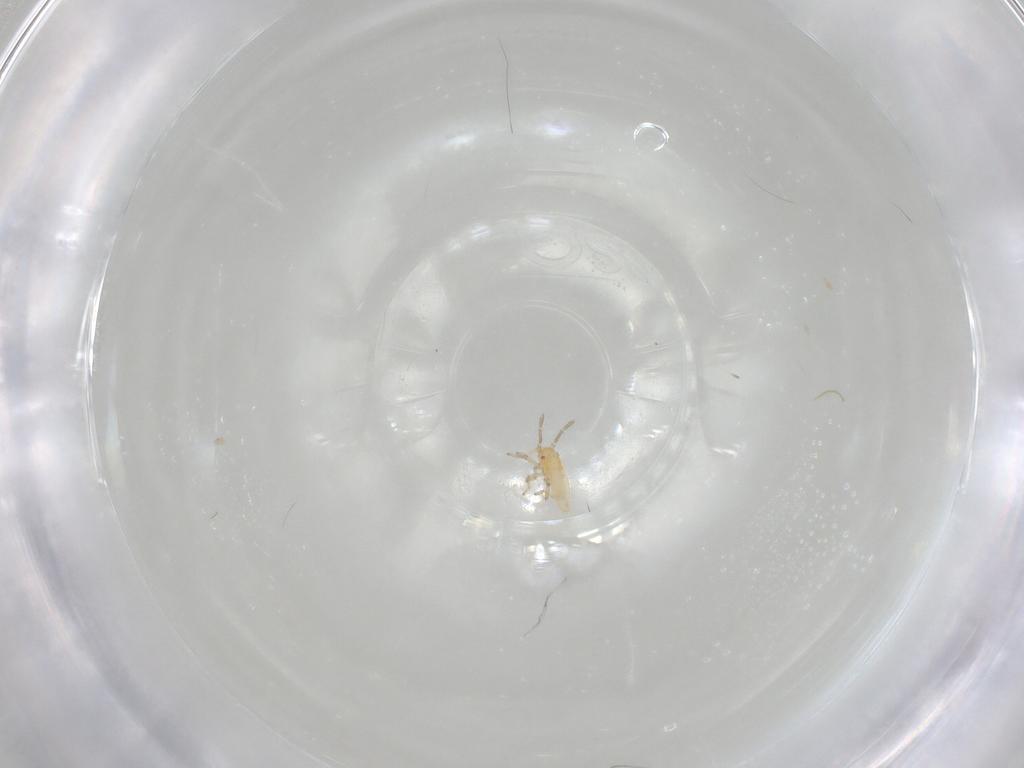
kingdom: Animalia
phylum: Arthropoda
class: Insecta
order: Hemiptera
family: Tingidae
